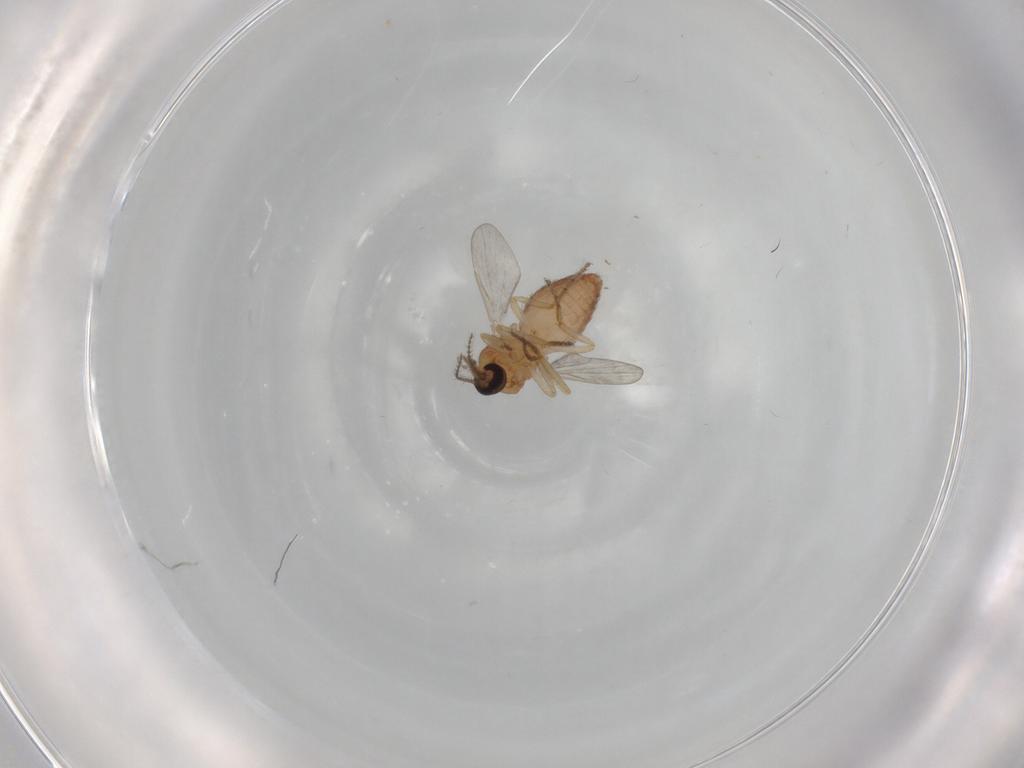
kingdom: Animalia
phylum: Arthropoda
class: Insecta
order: Diptera
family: Ceratopogonidae
